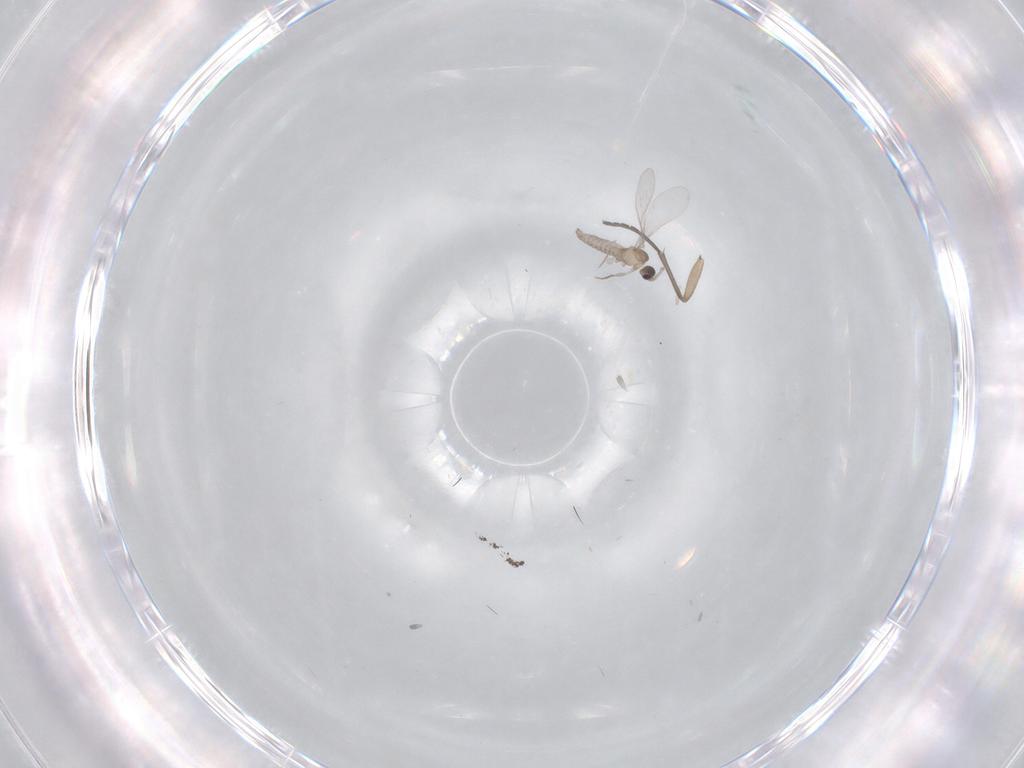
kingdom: Animalia
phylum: Arthropoda
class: Insecta
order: Diptera
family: Sciaridae
